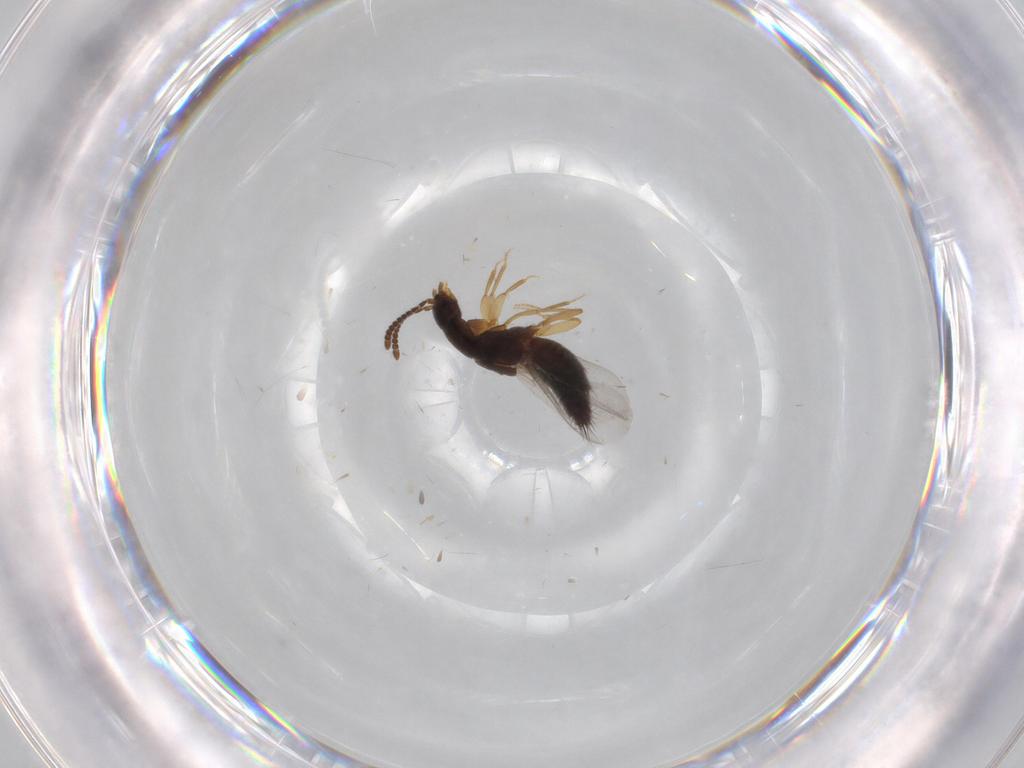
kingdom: Animalia
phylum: Arthropoda
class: Insecta
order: Coleoptera
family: Staphylinidae
